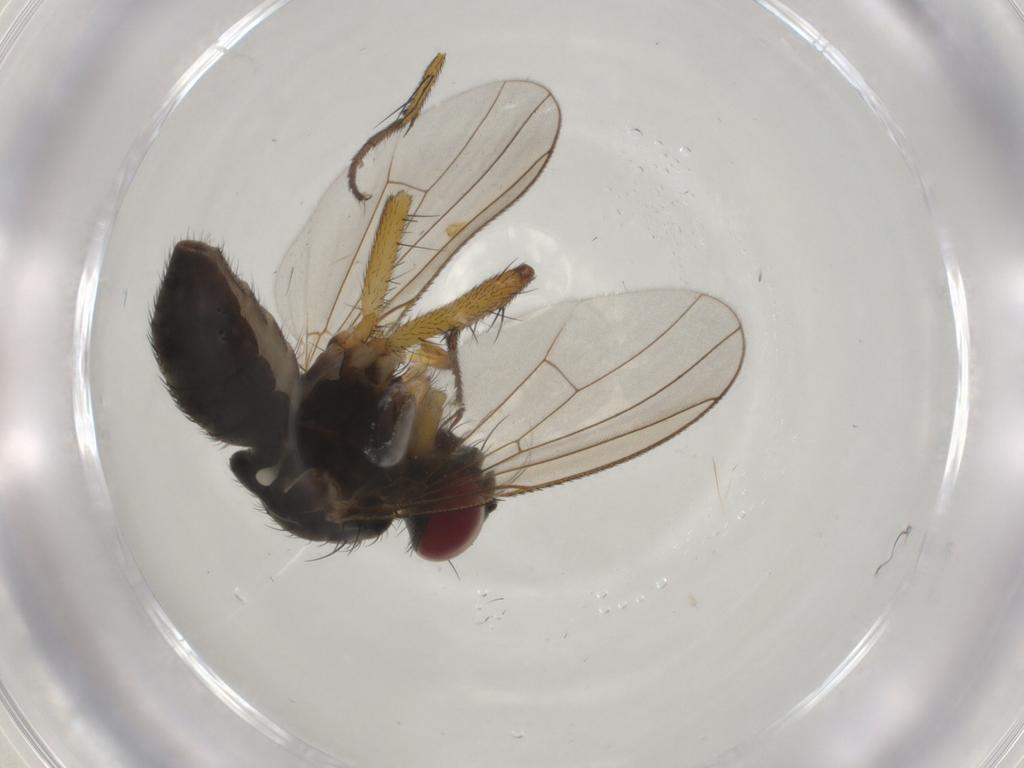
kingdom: Animalia
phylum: Arthropoda
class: Insecta
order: Diptera
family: Muscidae
